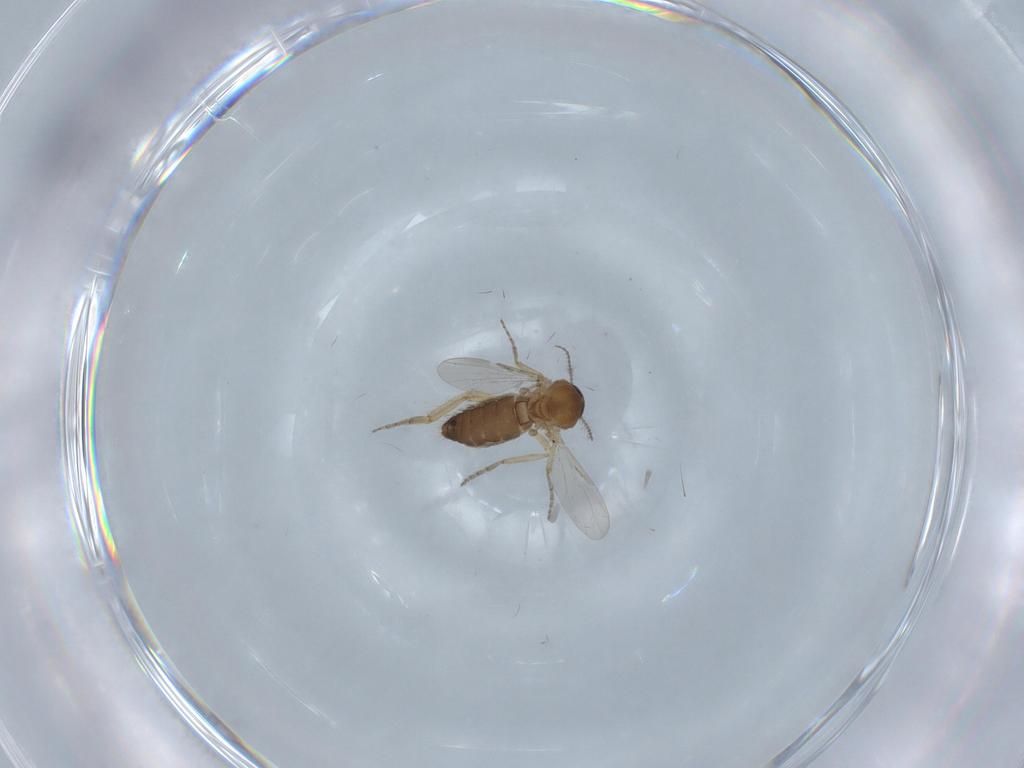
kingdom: Animalia
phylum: Arthropoda
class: Insecta
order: Diptera
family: Ceratopogonidae
